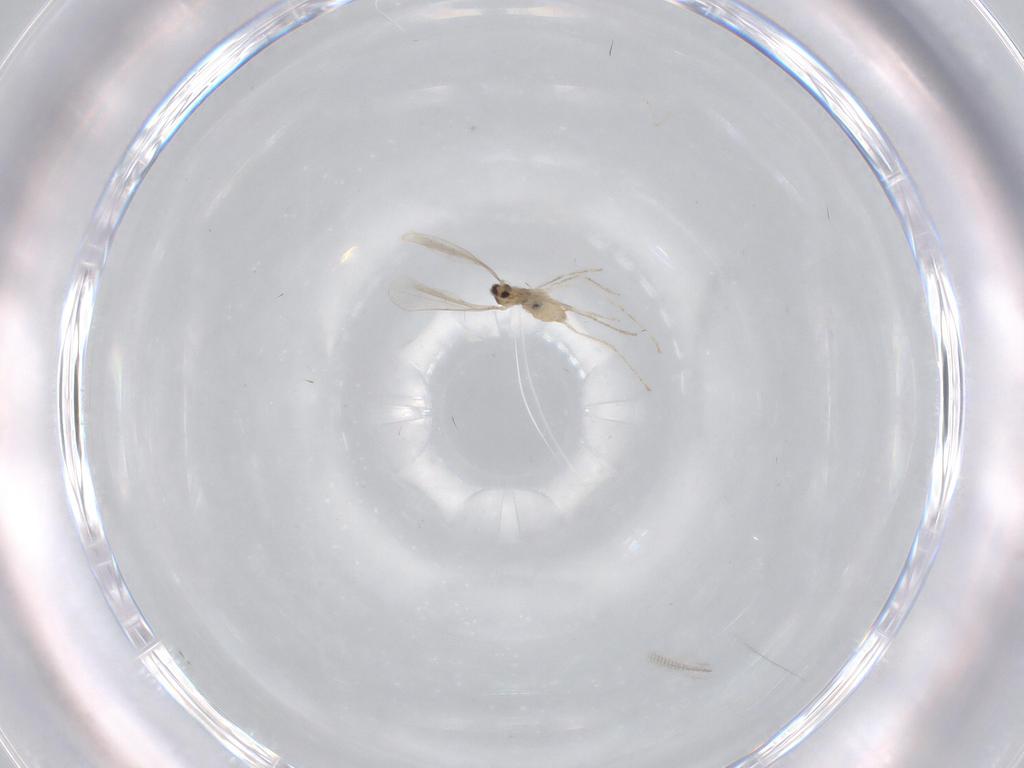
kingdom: Animalia
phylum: Arthropoda
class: Insecta
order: Diptera
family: Cecidomyiidae
